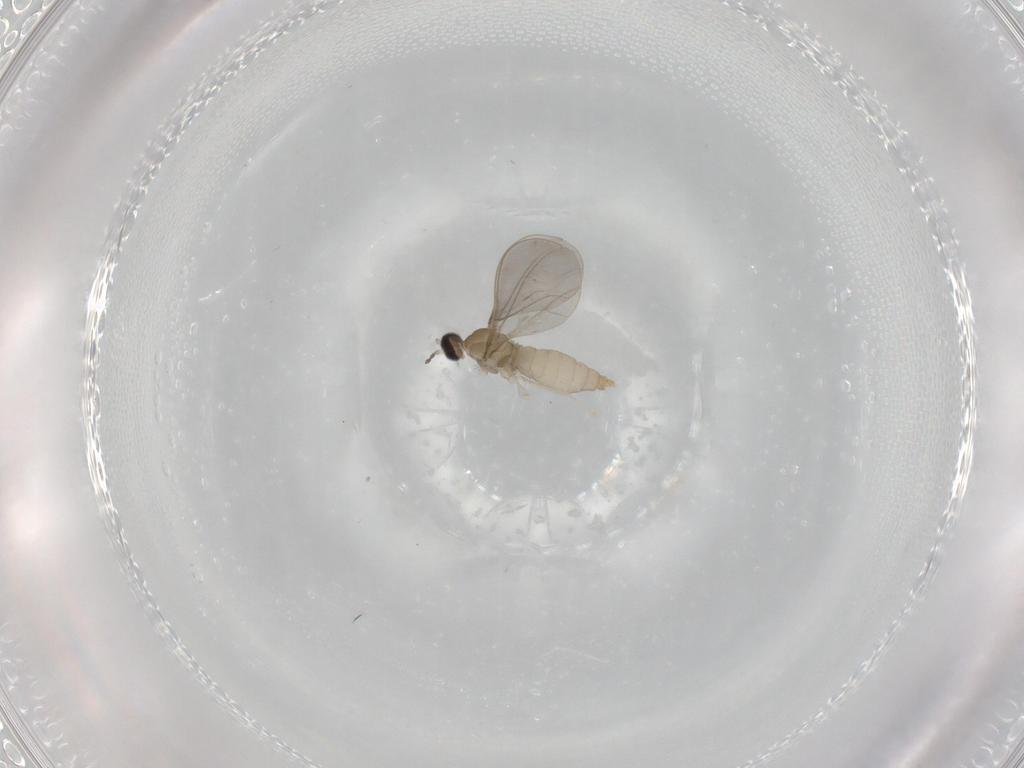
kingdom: Animalia
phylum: Arthropoda
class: Insecta
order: Diptera
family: Cecidomyiidae
